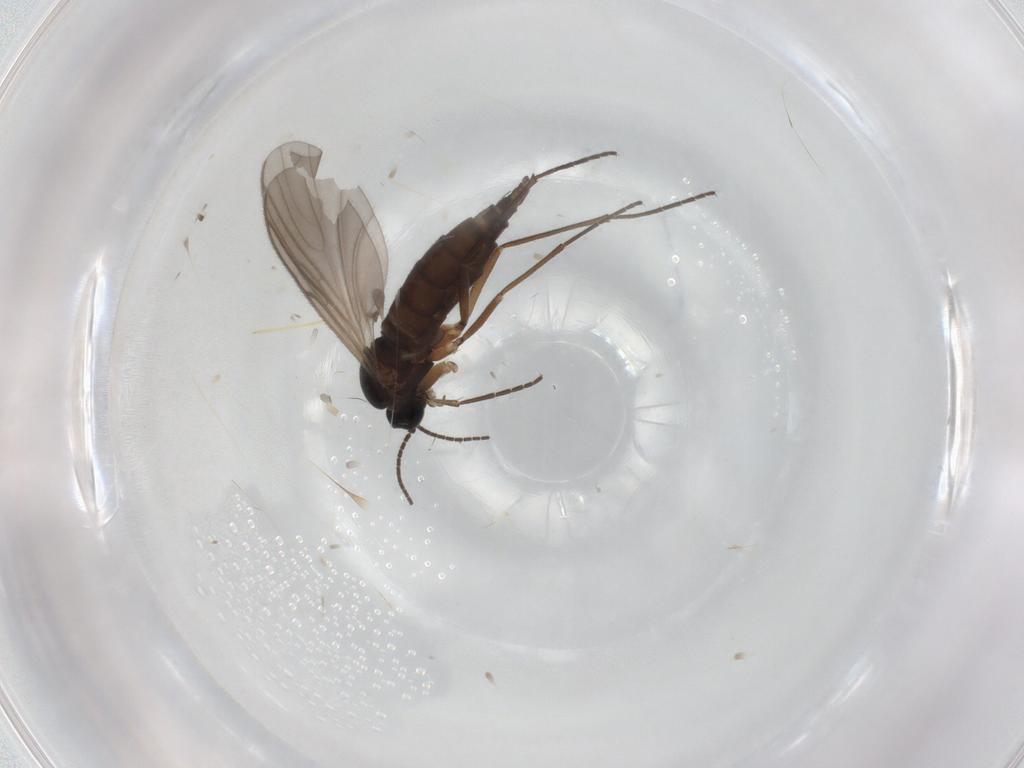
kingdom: Animalia
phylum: Arthropoda
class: Insecta
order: Diptera
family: Sciaridae
